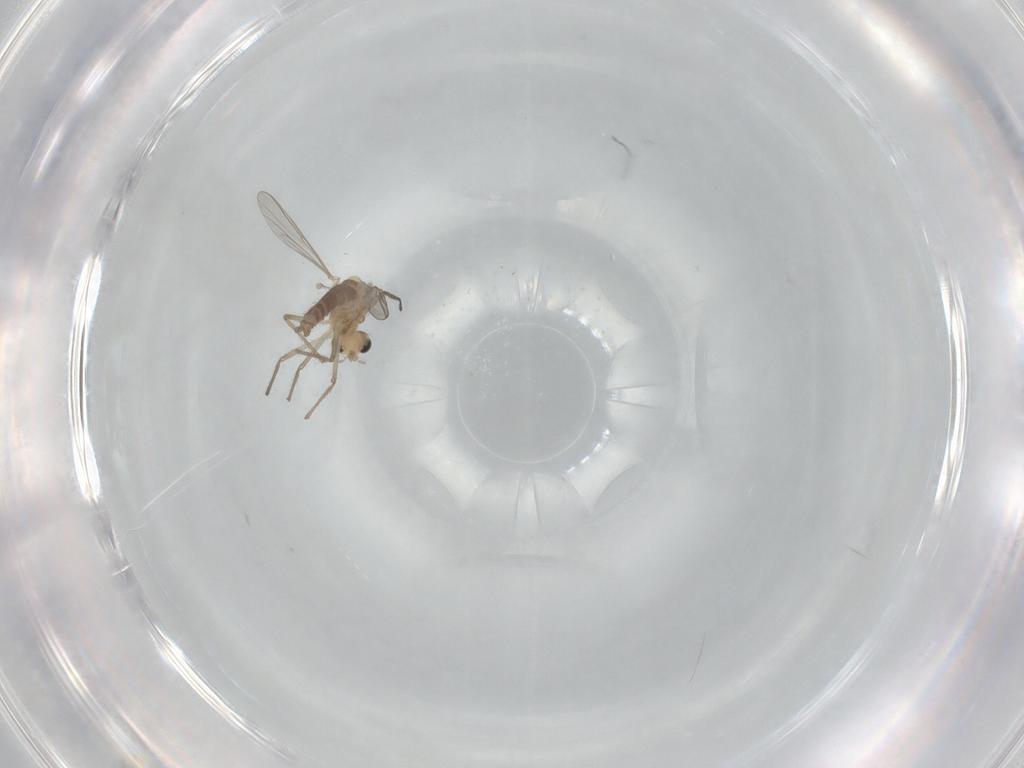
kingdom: Animalia
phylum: Arthropoda
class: Insecta
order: Diptera
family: Chironomidae
